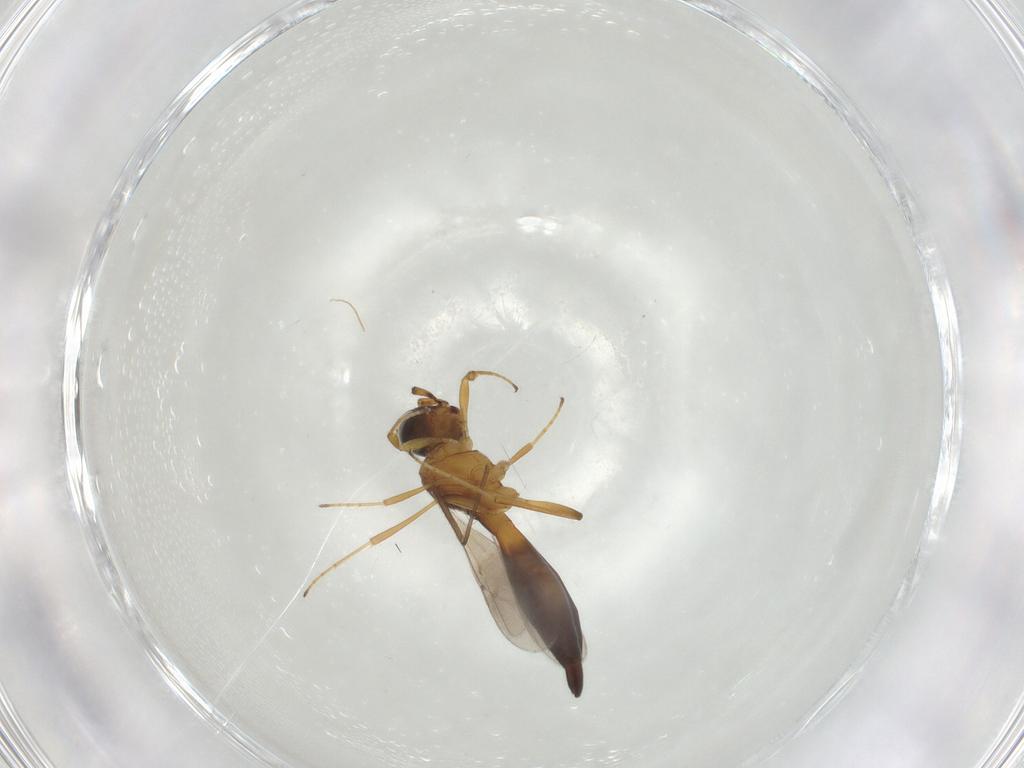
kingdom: Animalia
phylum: Arthropoda
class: Insecta
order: Hymenoptera
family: Scelionidae
